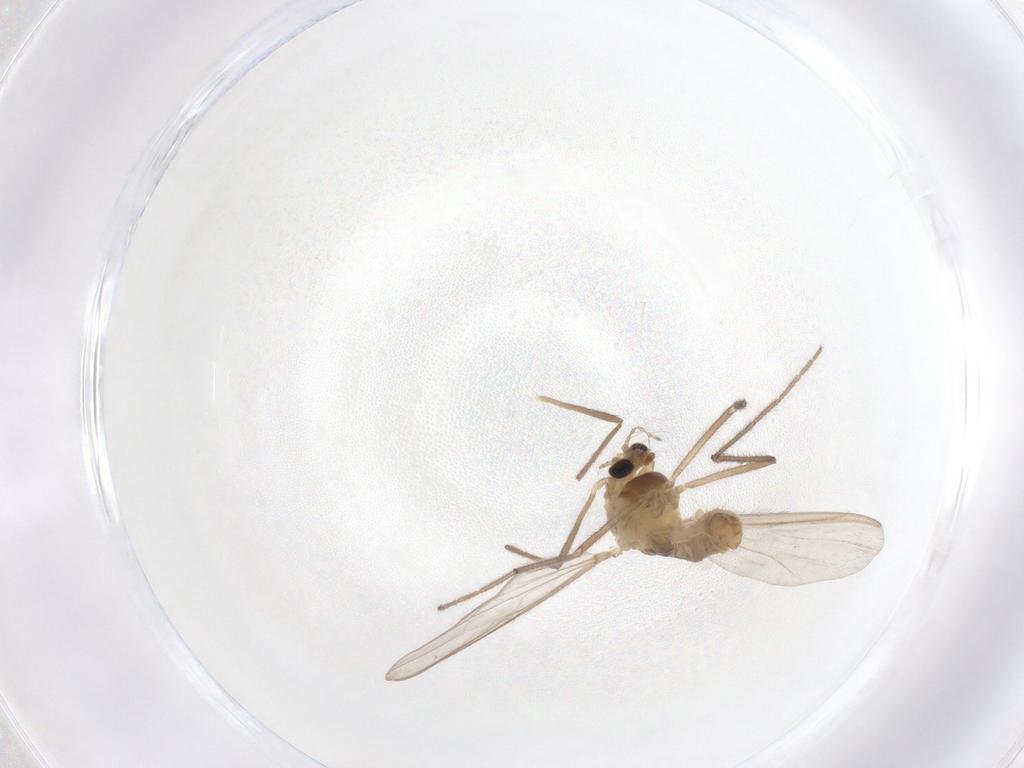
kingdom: Animalia
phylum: Arthropoda
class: Insecta
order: Diptera
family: Chironomidae
